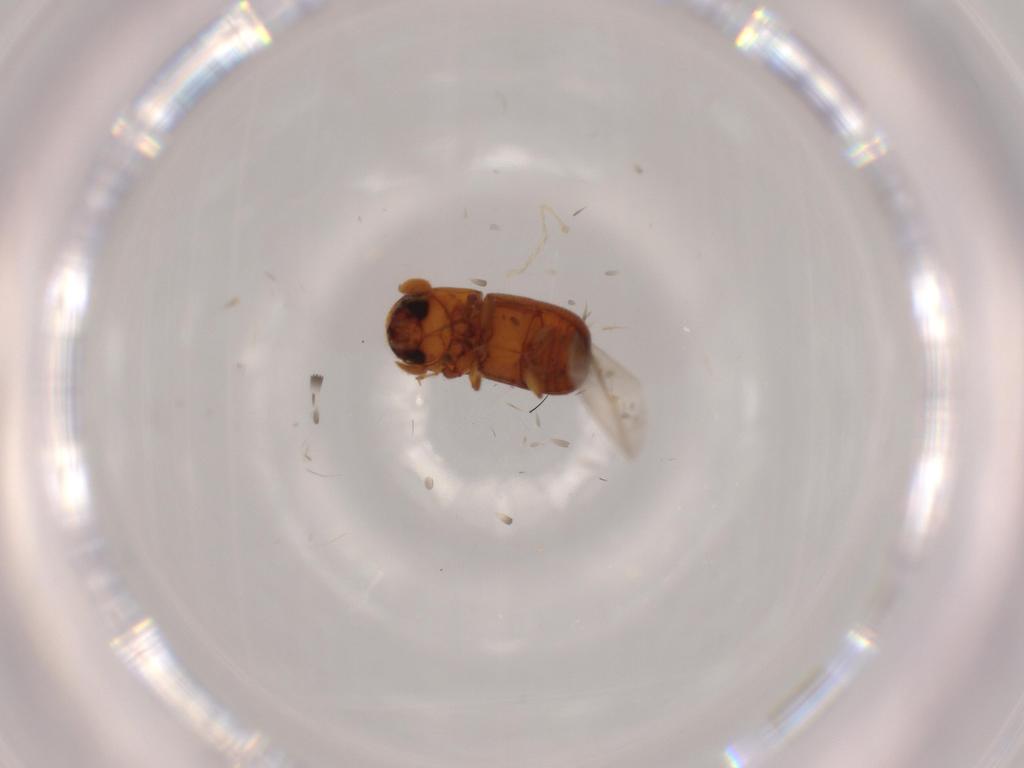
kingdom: Animalia
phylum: Arthropoda
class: Insecta
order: Coleoptera
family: Curculionidae
